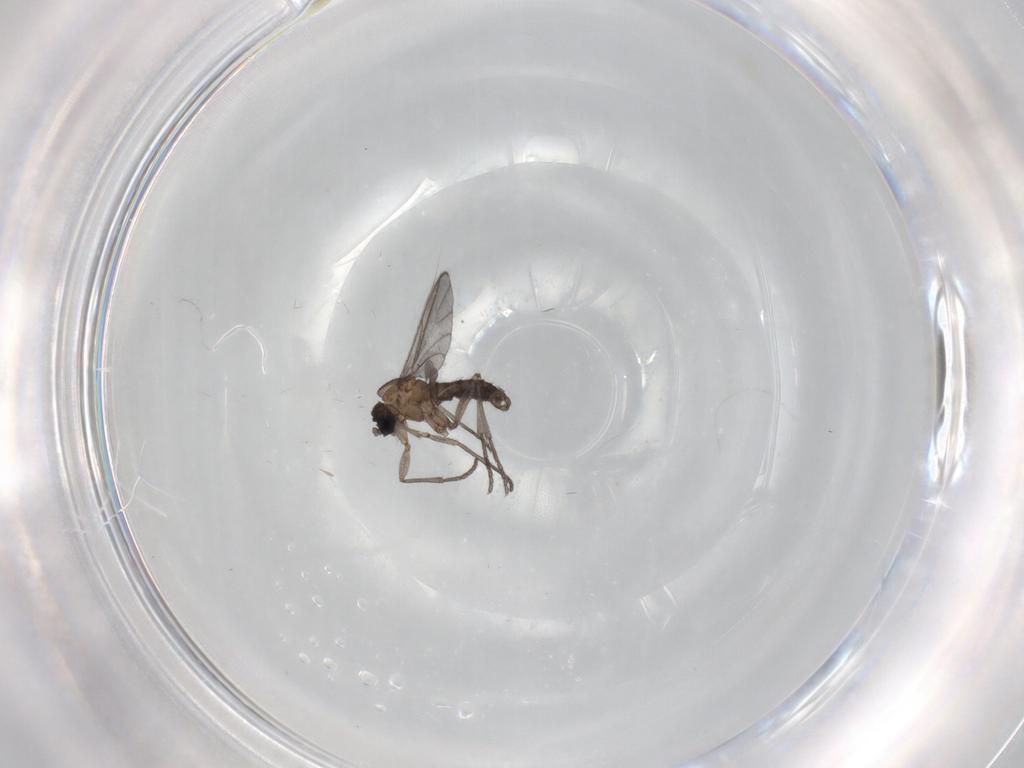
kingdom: Animalia
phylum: Arthropoda
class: Insecta
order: Diptera
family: Sciaridae
